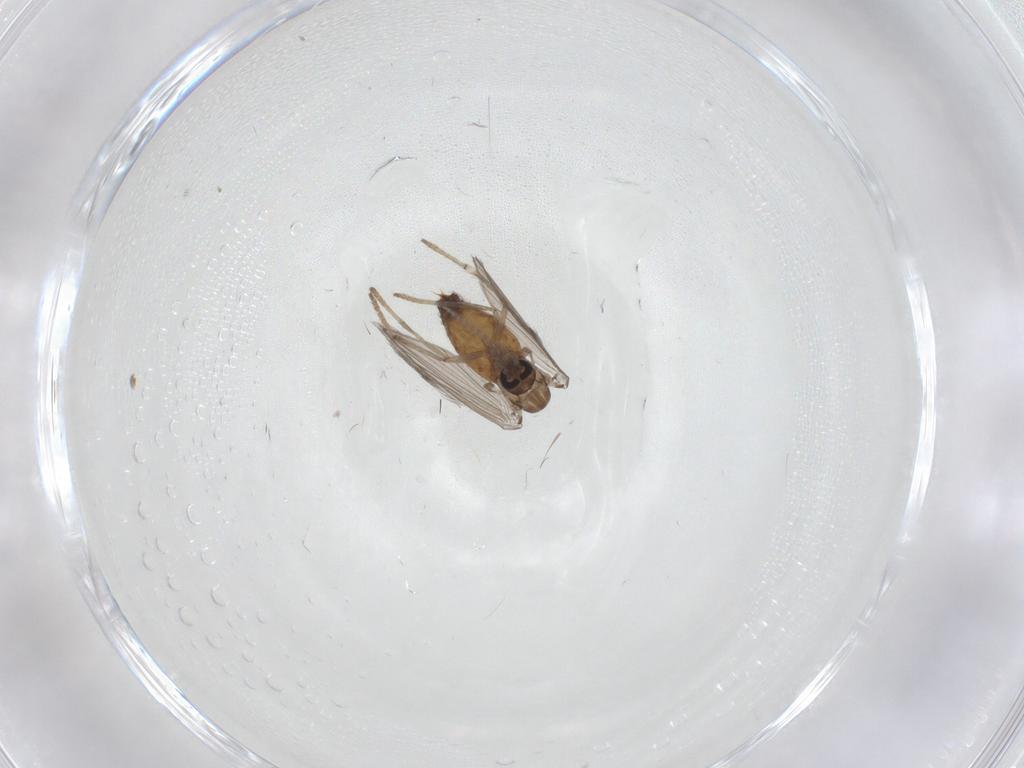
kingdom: Animalia
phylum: Arthropoda
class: Insecta
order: Diptera
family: Psychodidae
